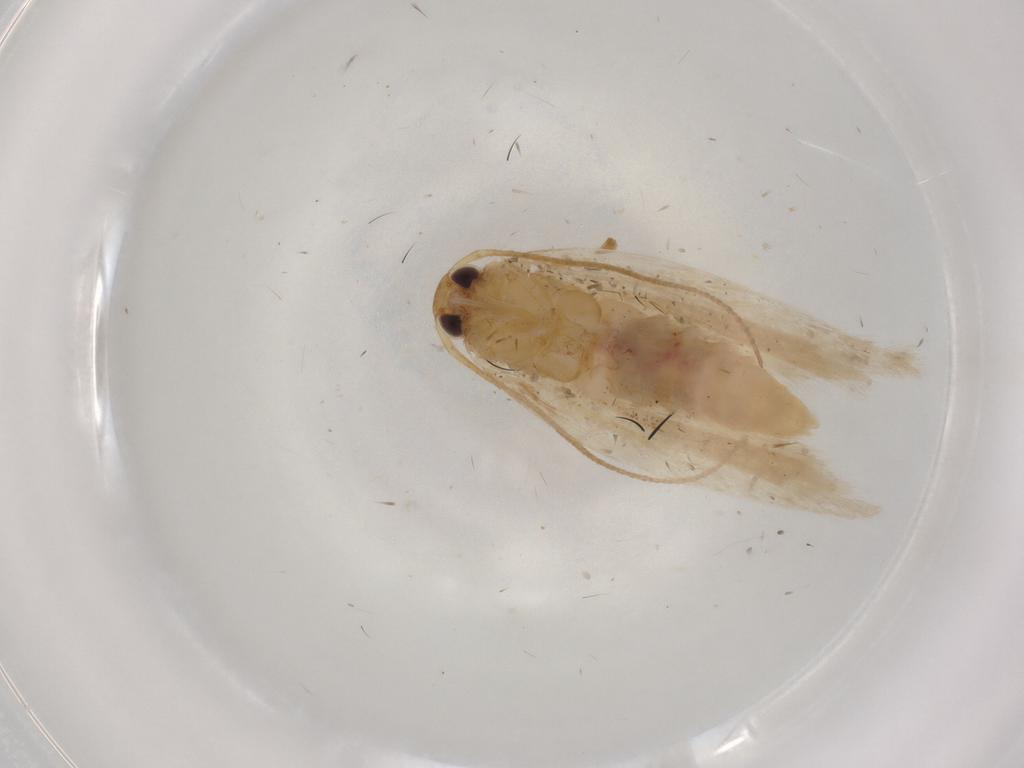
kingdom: Animalia
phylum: Arthropoda
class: Insecta
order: Lepidoptera
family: Gelechiidae
